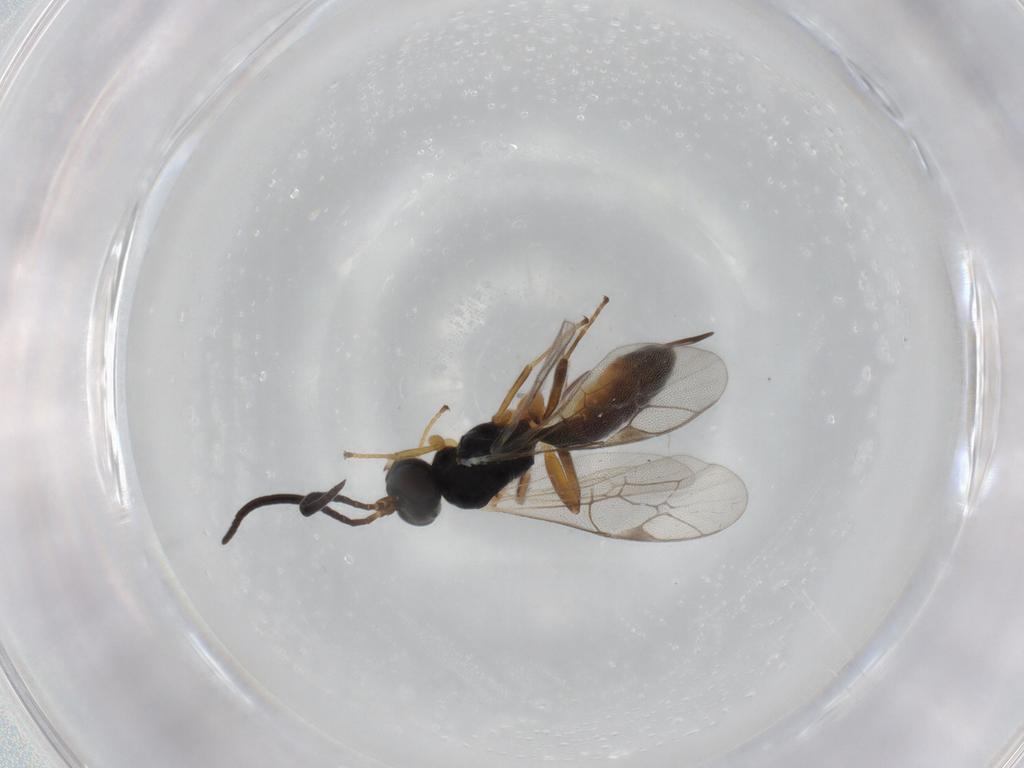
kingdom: Animalia
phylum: Arthropoda
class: Insecta
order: Hymenoptera
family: Ichneumonidae
